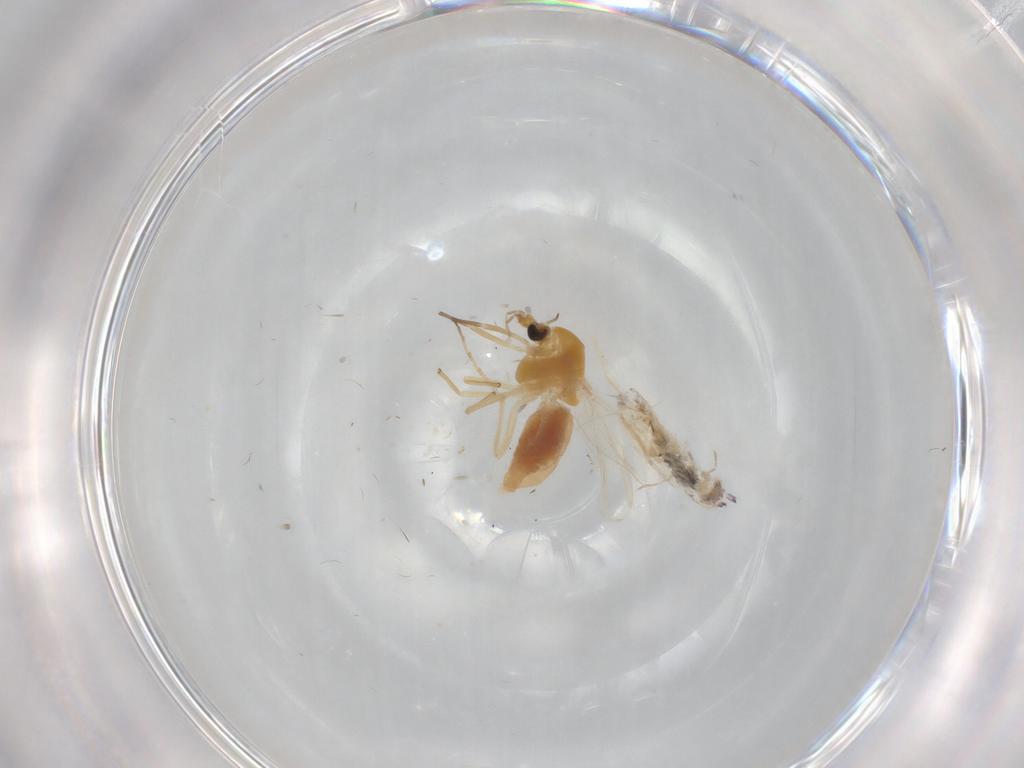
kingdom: Animalia
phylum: Arthropoda
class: Insecta
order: Diptera
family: Chironomidae
